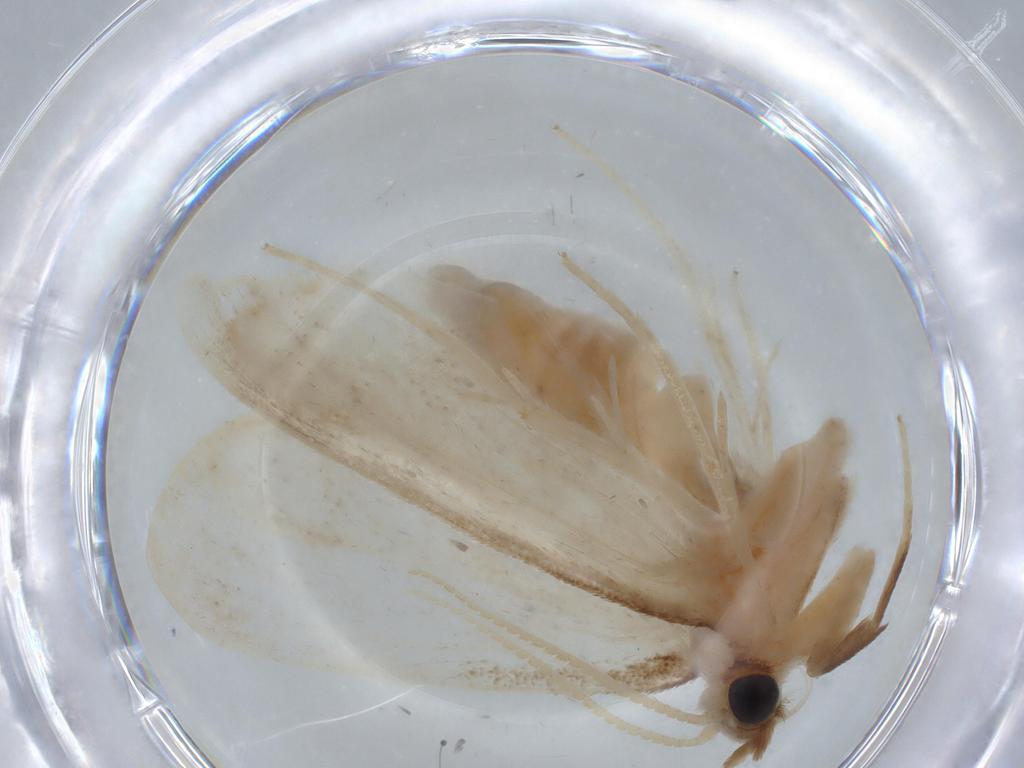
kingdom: Animalia
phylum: Arthropoda
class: Insecta
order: Lepidoptera
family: Crambidae
